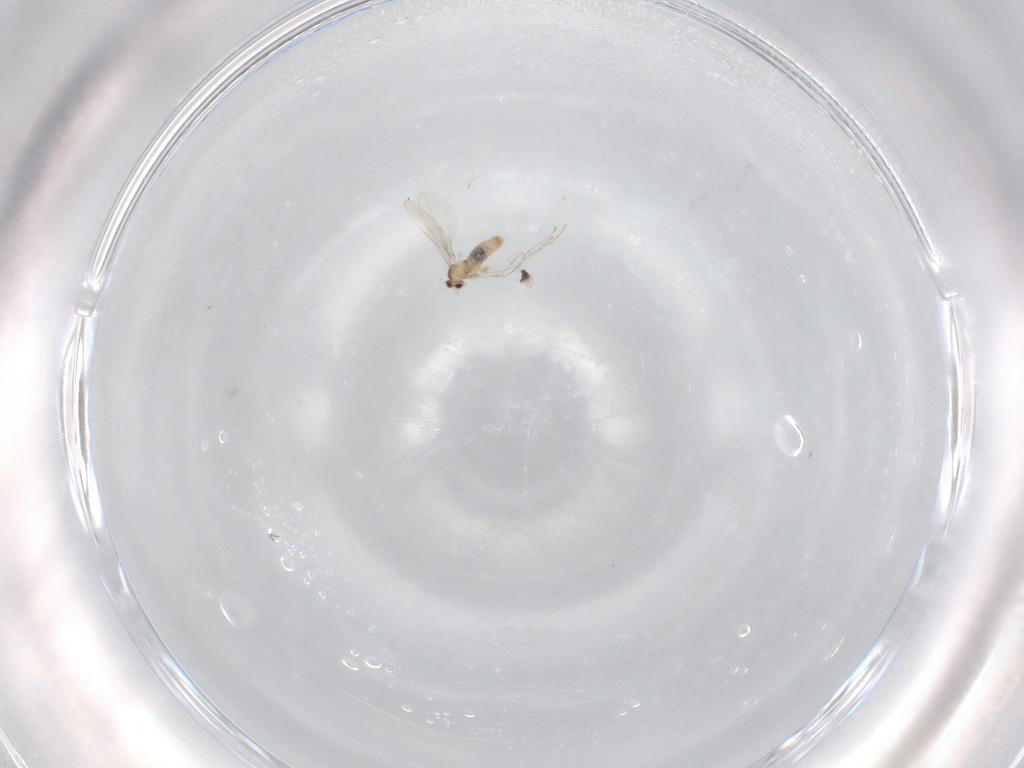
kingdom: Animalia
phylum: Arthropoda
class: Insecta
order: Diptera
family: Cecidomyiidae
